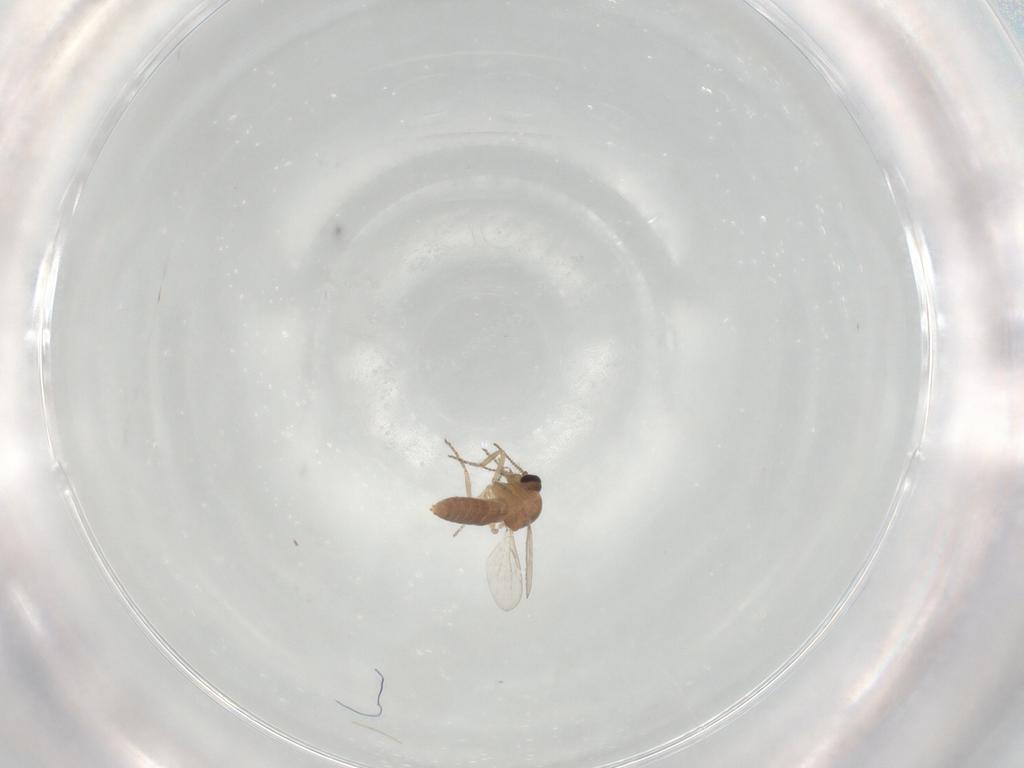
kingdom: Animalia
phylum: Arthropoda
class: Insecta
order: Diptera
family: Ceratopogonidae
